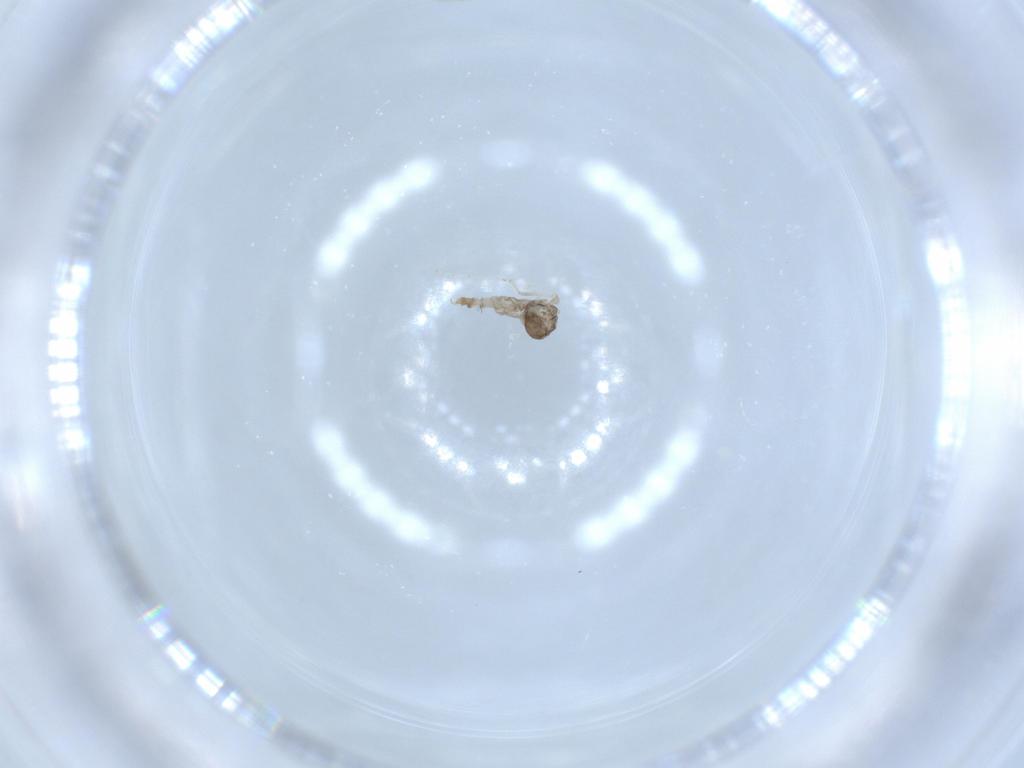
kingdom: Animalia
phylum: Arthropoda
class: Insecta
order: Diptera
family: Cecidomyiidae
